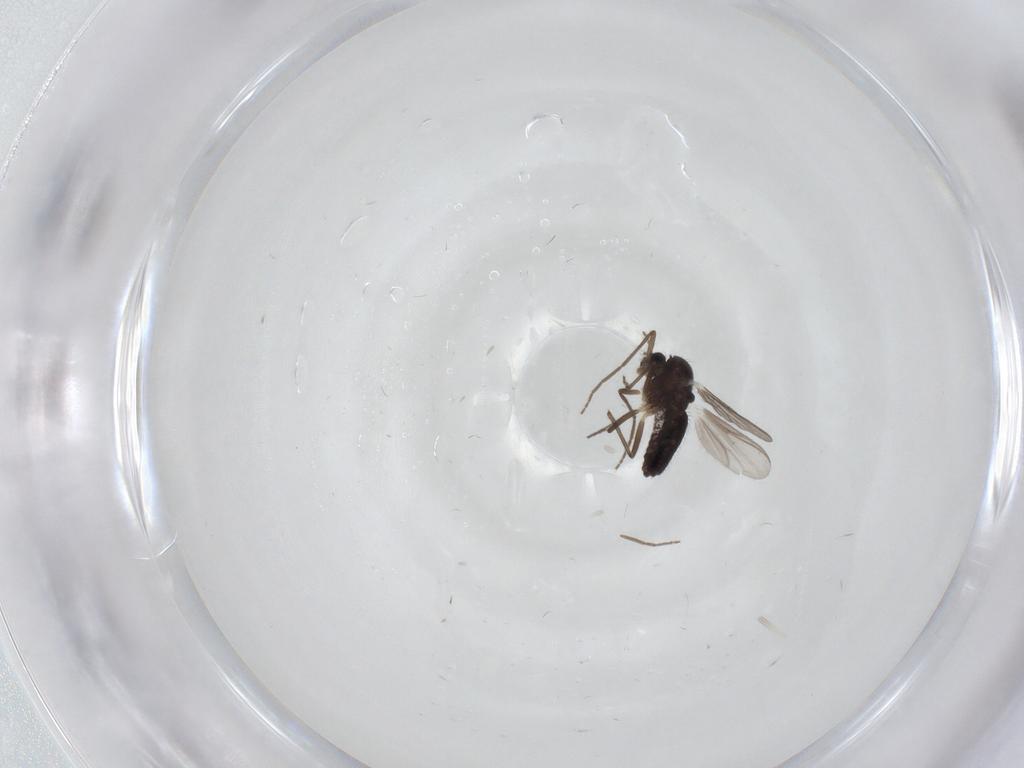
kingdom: Animalia
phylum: Arthropoda
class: Insecta
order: Diptera
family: Chironomidae
